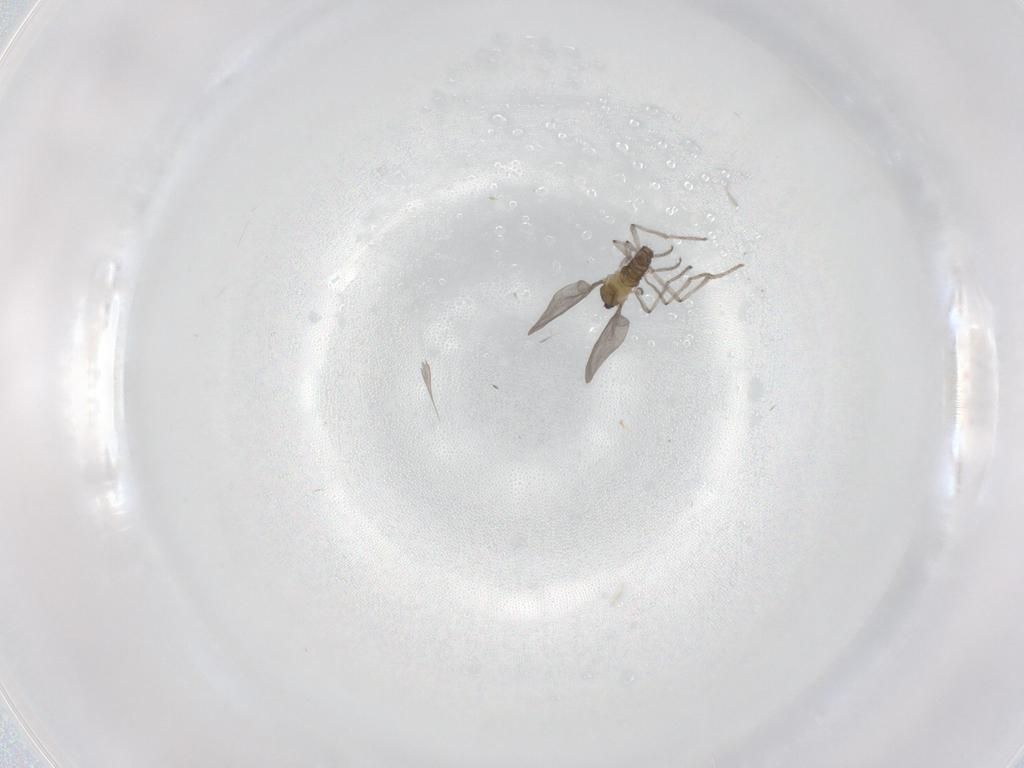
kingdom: Animalia
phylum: Arthropoda
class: Insecta
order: Diptera
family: Cecidomyiidae
